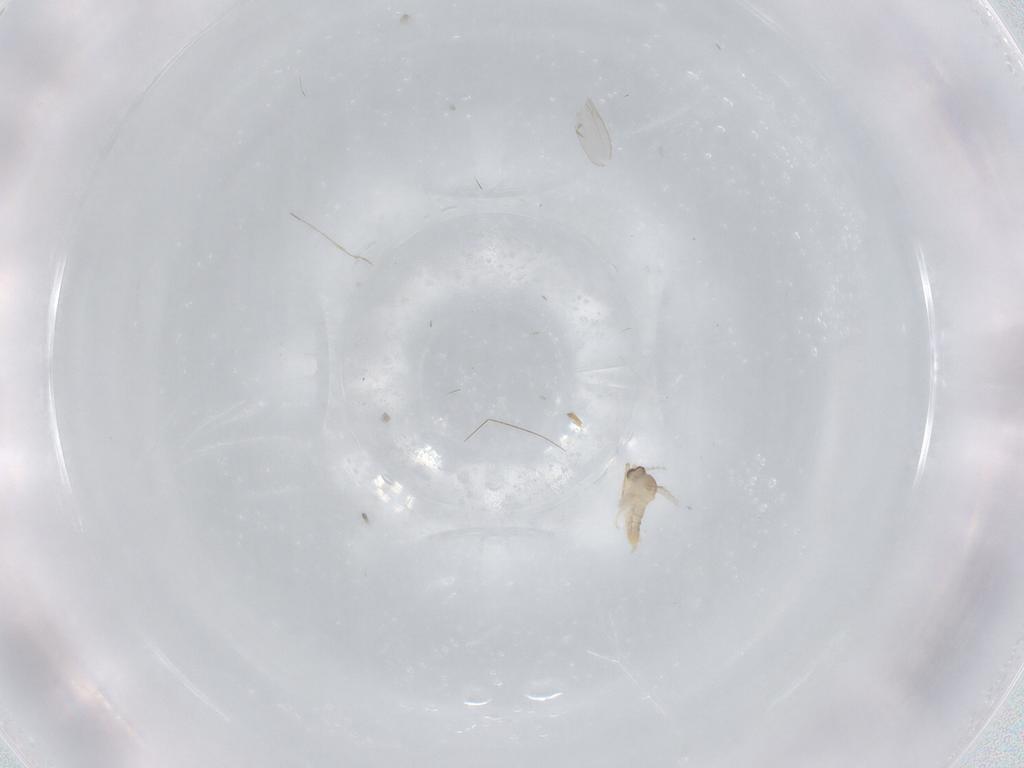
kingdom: Animalia
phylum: Arthropoda
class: Insecta
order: Diptera
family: Cecidomyiidae
